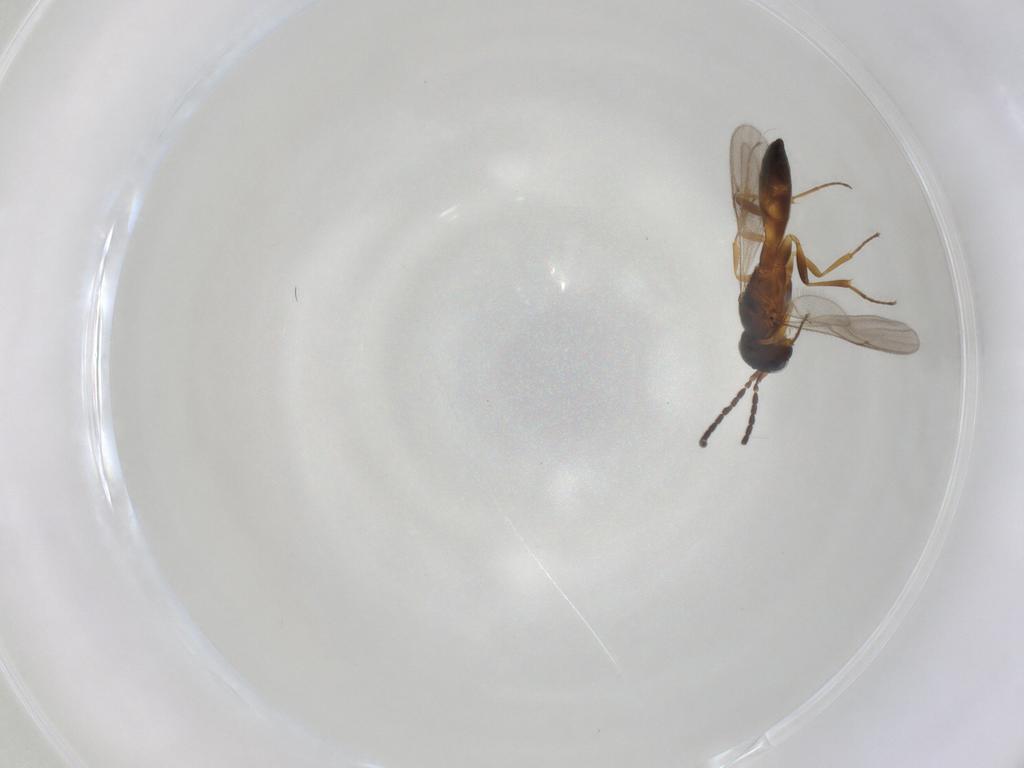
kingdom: Animalia
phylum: Arthropoda
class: Insecta
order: Hymenoptera
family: Scelionidae
